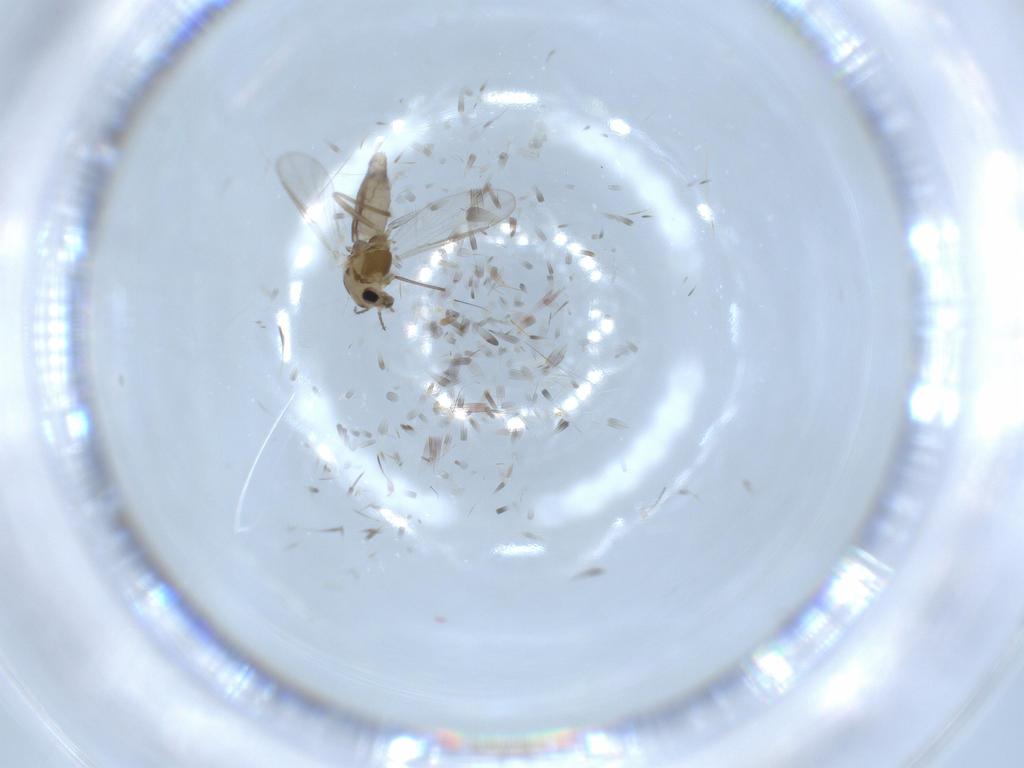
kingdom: Animalia
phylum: Arthropoda
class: Insecta
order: Diptera
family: Chironomidae
